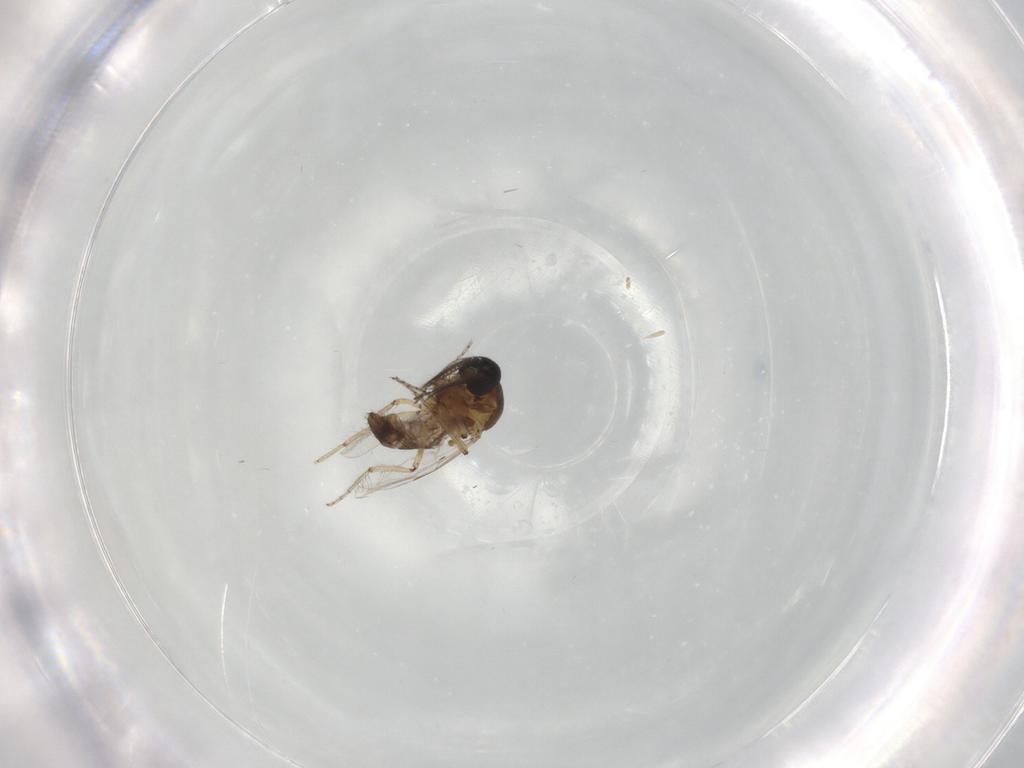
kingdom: Animalia
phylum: Arthropoda
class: Insecta
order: Diptera
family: Ceratopogonidae
